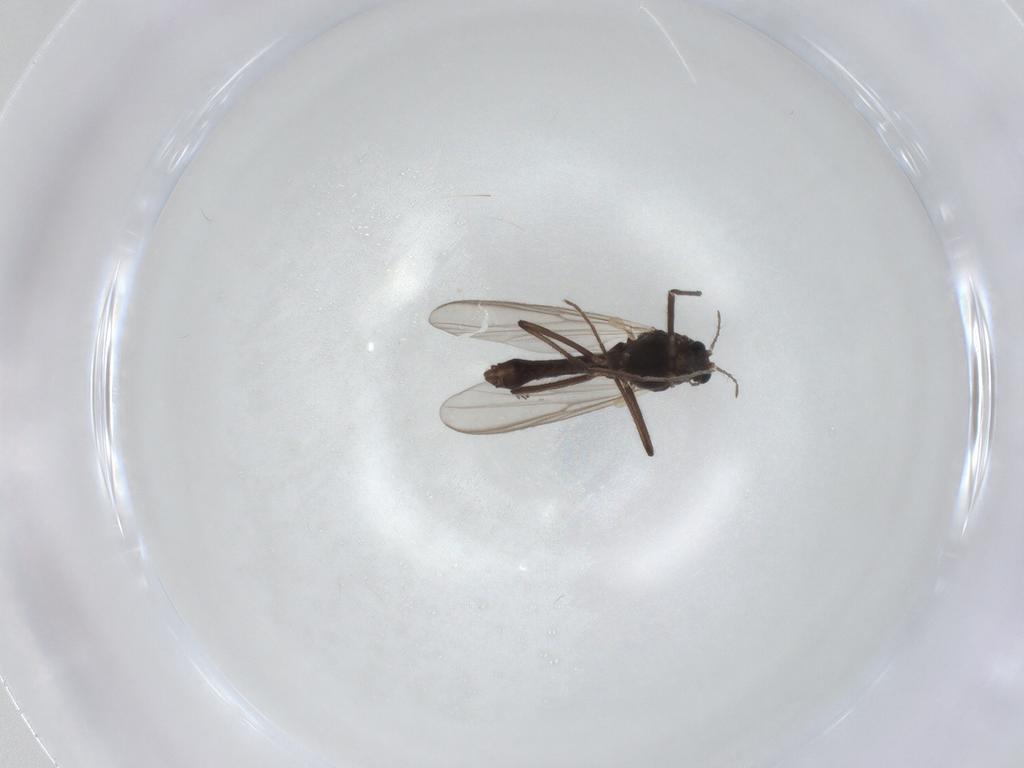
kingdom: Animalia
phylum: Arthropoda
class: Insecta
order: Diptera
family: Chironomidae
